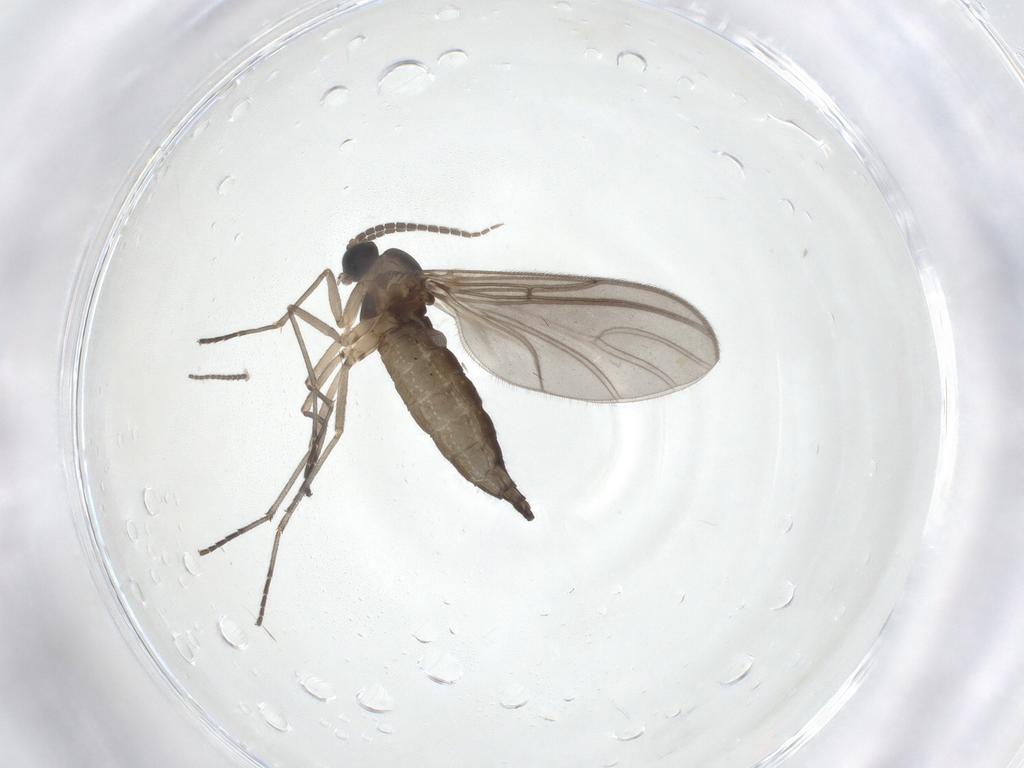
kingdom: Animalia
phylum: Arthropoda
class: Insecta
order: Diptera
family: Sciaridae
